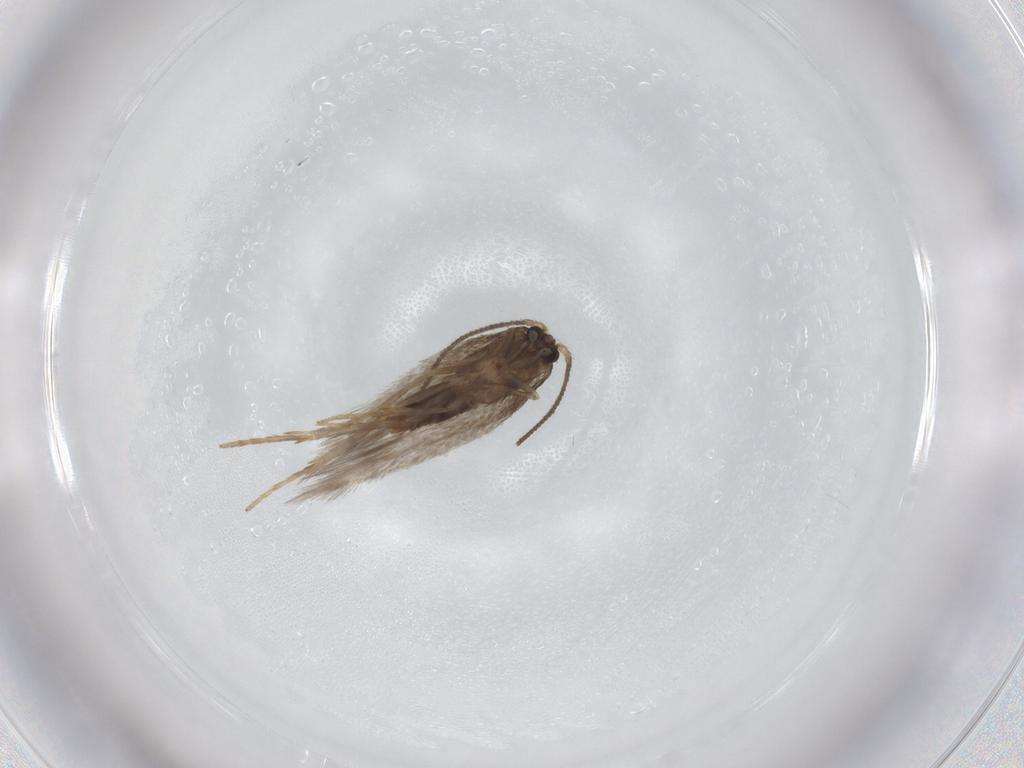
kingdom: Animalia
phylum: Arthropoda
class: Insecta
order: Lepidoptera
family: Nepticulidae
